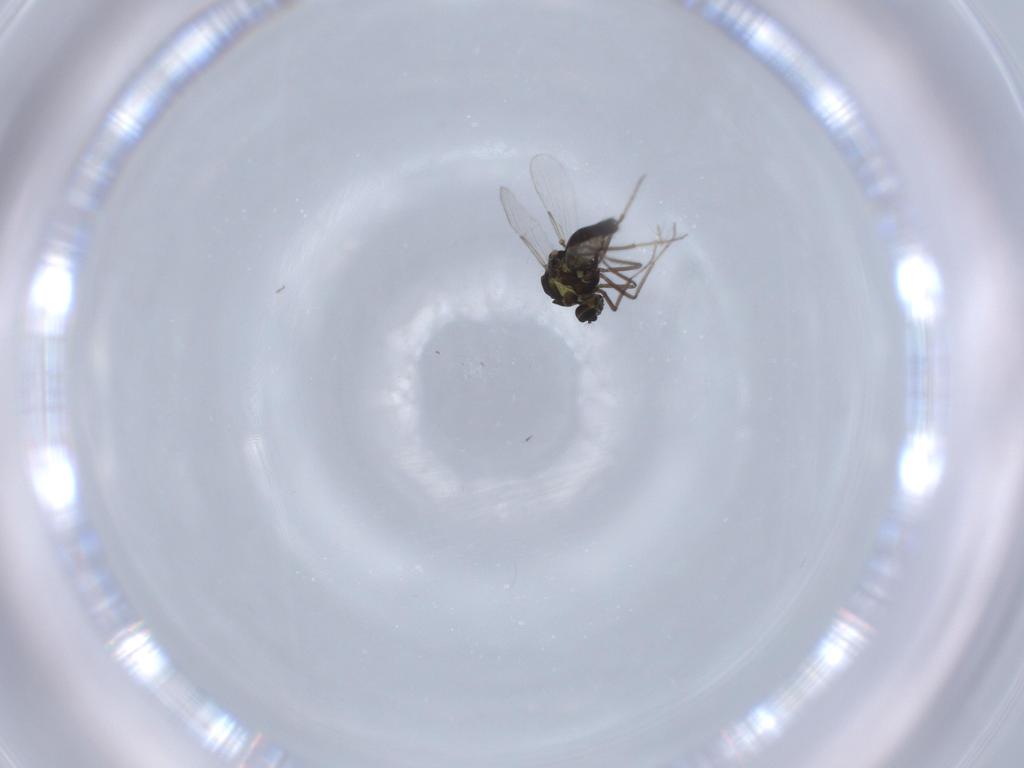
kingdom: Animalia
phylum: Arthropoda
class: Insecta
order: Diptera
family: Ceratopogonidae
